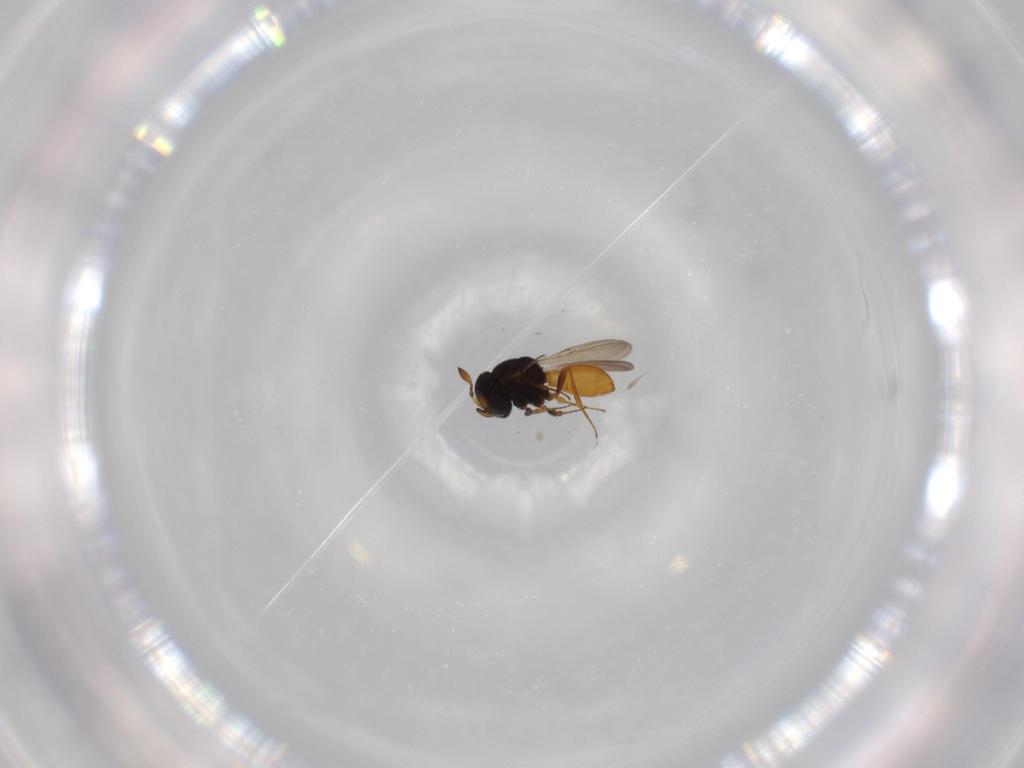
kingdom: Animalia
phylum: Arthropoda
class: Insecta
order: Hymenoptera
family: Scelionidae
